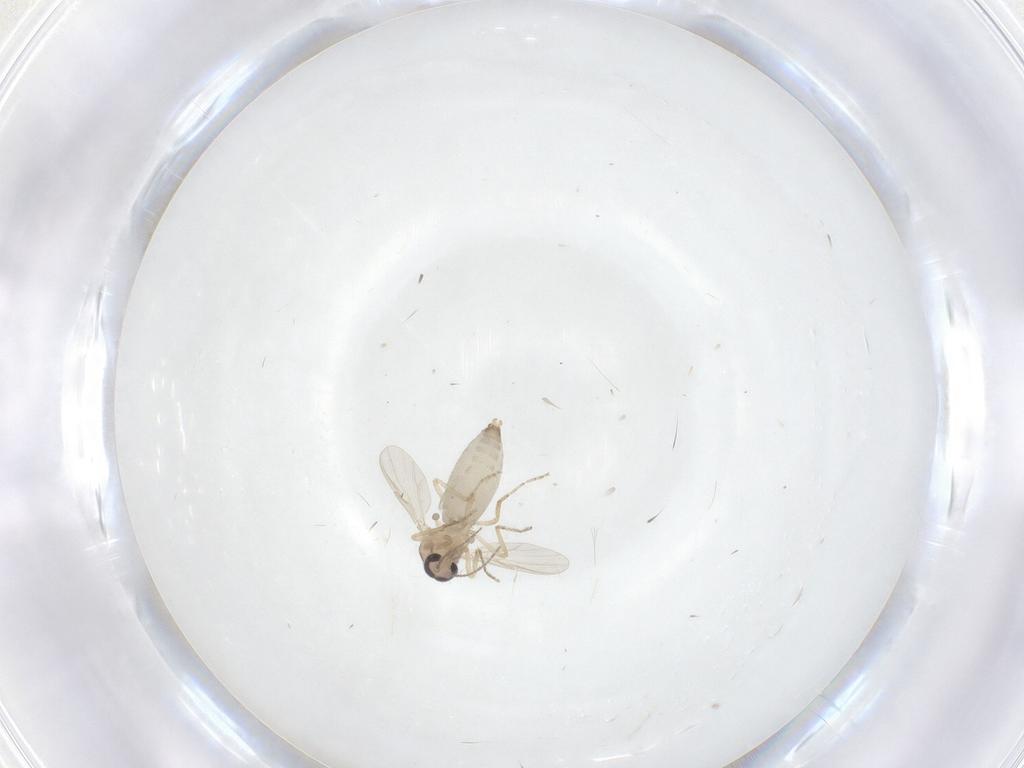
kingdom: Animalia
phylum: Arthropoda
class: Insecta
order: Diptera
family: Ceratopogonidae
